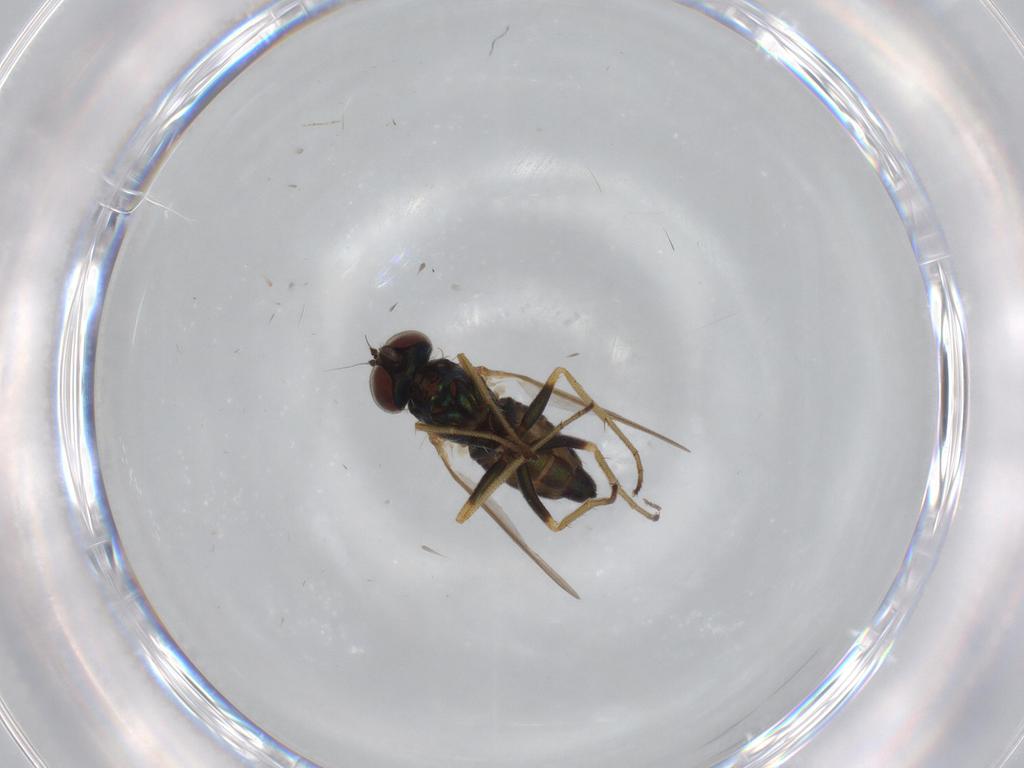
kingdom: Animalia
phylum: Arthropoda
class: Insecta
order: Diptera
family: Dolichopodidae
